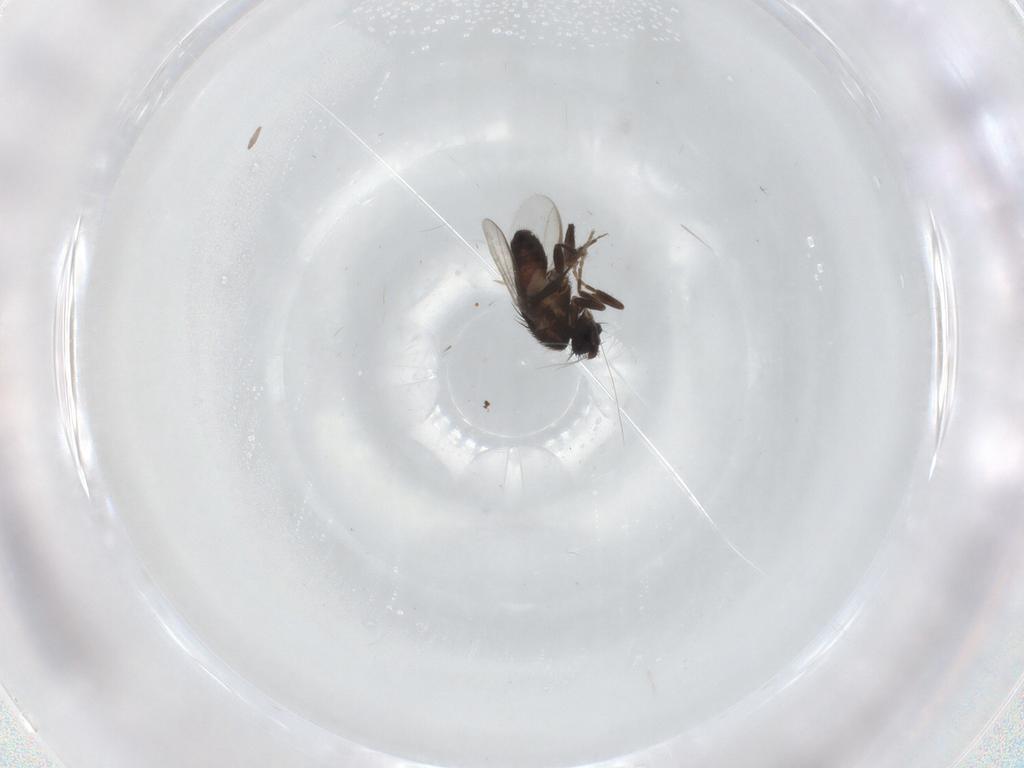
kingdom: Animalia
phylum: Arthropoda
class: Insecta
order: Diptera
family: Sphaeroceridae
